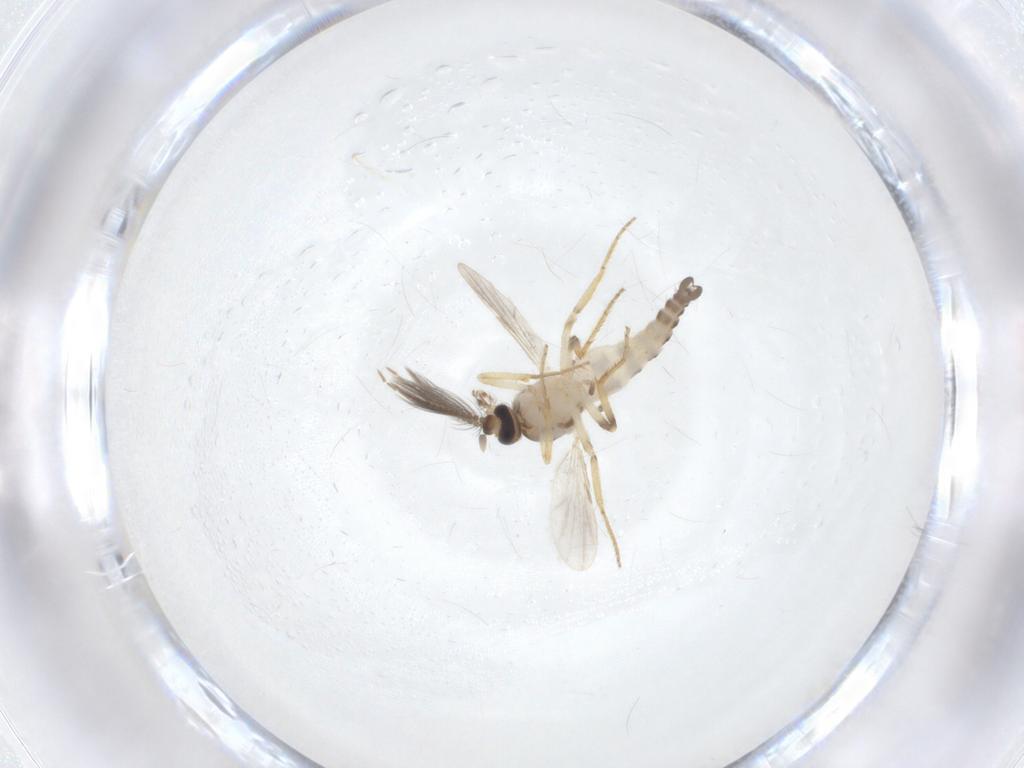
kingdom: Animalia
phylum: Arthropoda
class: Insecta
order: Diptera
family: Ceratopogonidae
